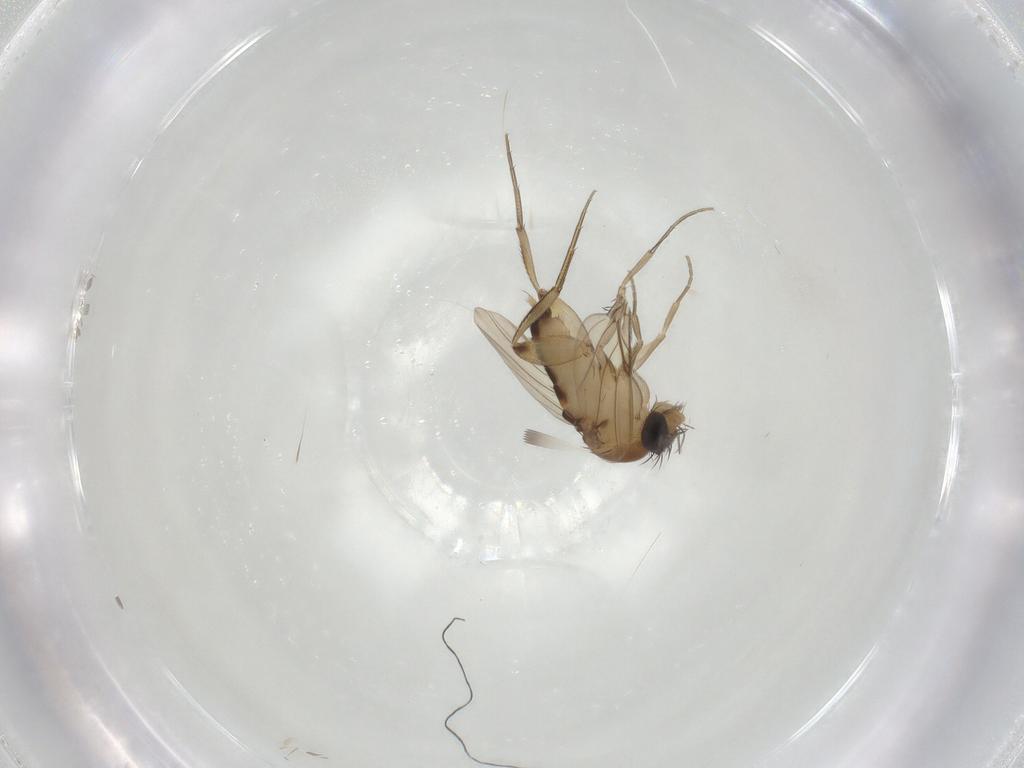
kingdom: Animalia
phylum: Arthropoda
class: Insecta
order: Diptera
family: Phoridae
